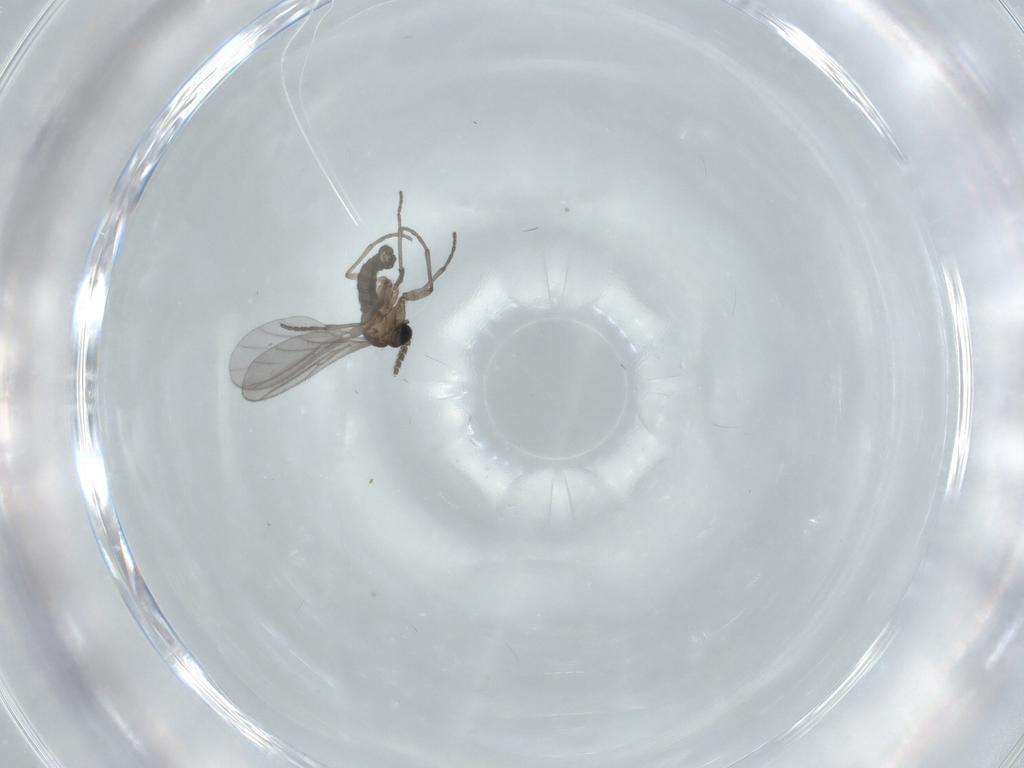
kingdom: Animalia
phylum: Arthropoda
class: Insecta
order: Diptera
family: Sciaridae
